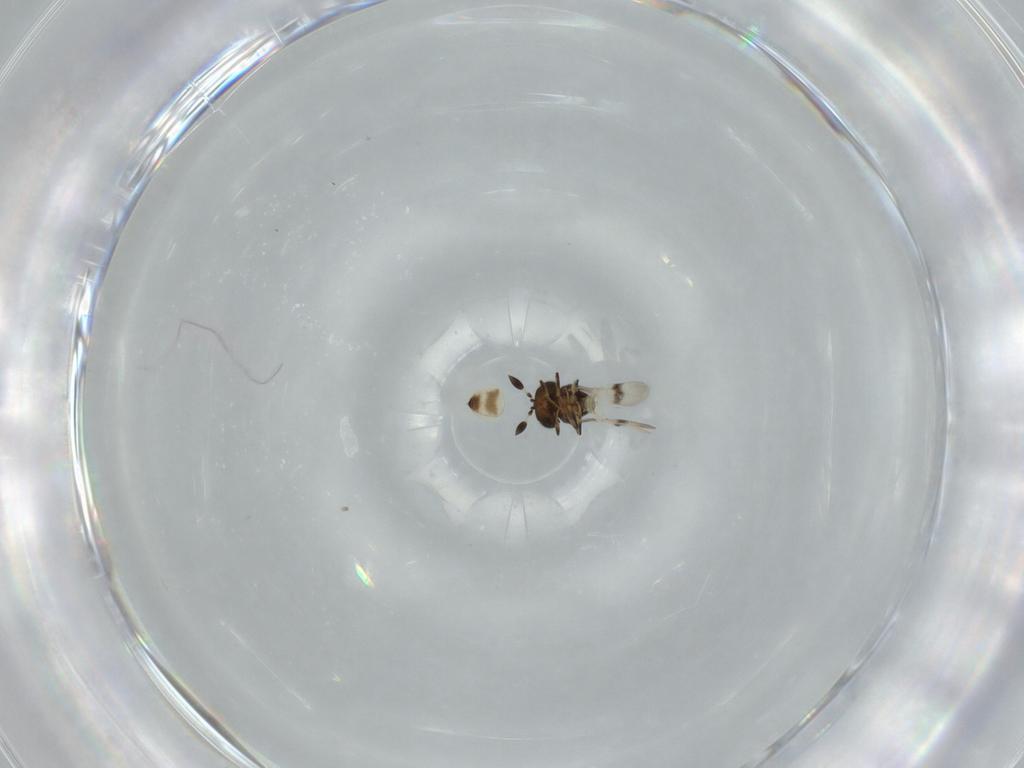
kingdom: Animalia
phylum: Arthropoda
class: Arachnida
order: Araneae
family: Pholcidae
